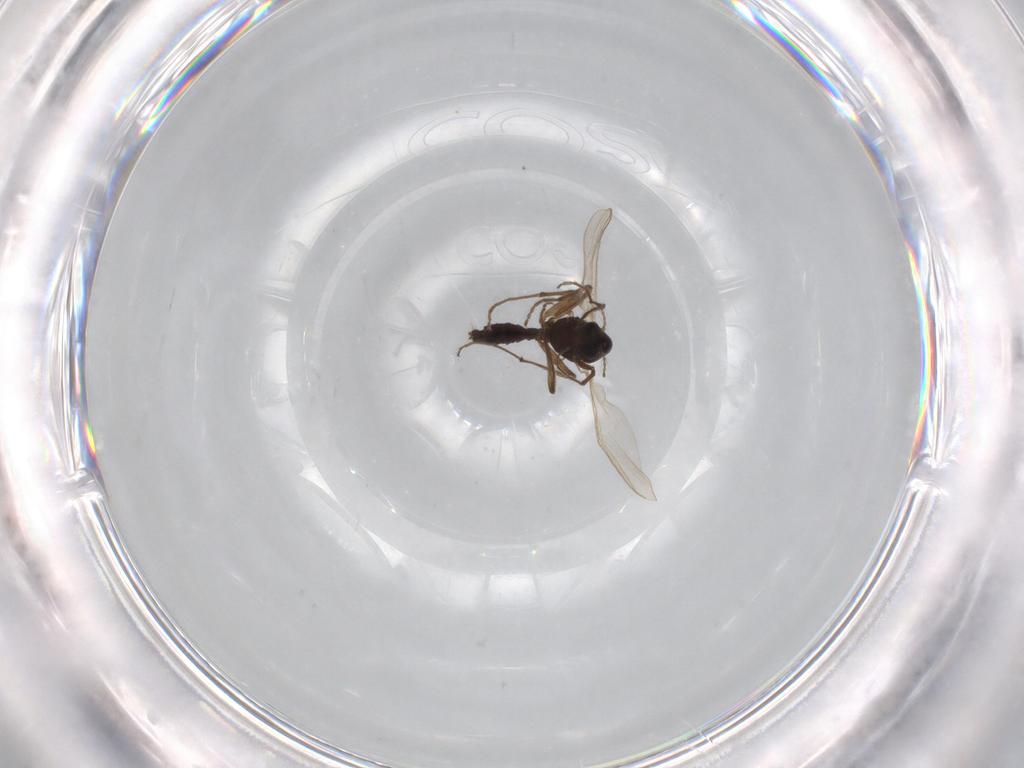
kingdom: Animalia
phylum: Arthropoda
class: Insecta
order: Diptera
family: Chironomidae
